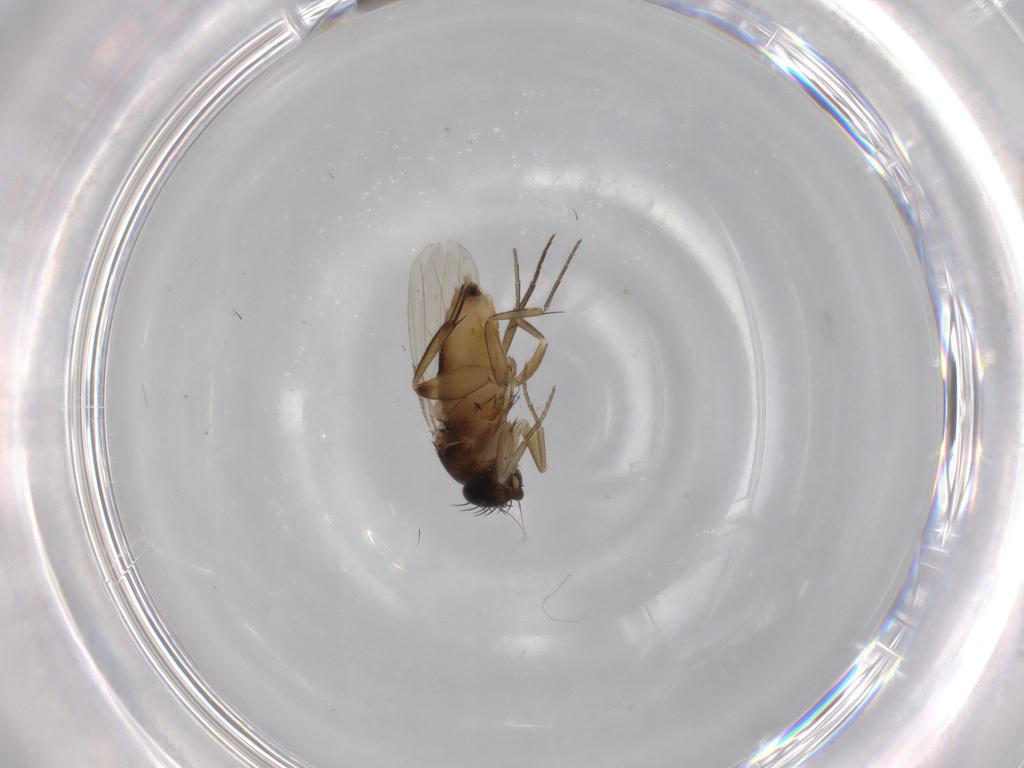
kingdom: Animalia
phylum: Arthropoda
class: Insecta
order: Diptera
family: Phoridae
